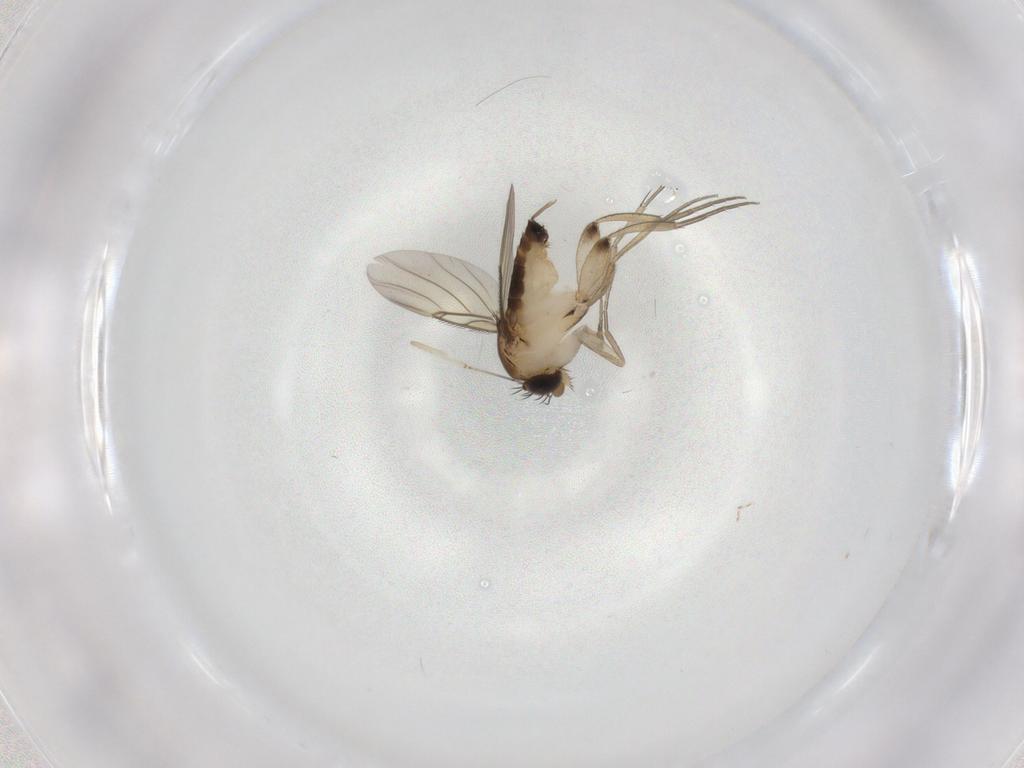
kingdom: Animalia
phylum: Arthropoda
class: Insecta
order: Diptera
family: Phoridae
